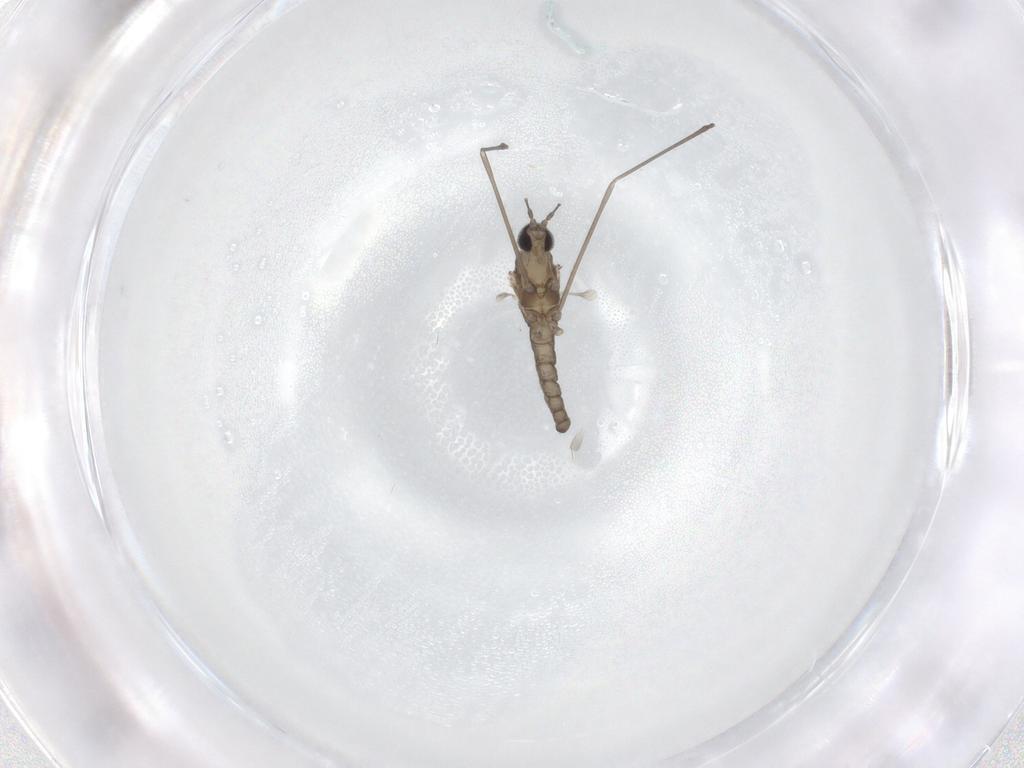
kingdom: Animalia
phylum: Arthropoda
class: Insecta
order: Diptera
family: Cecidomyiidae
